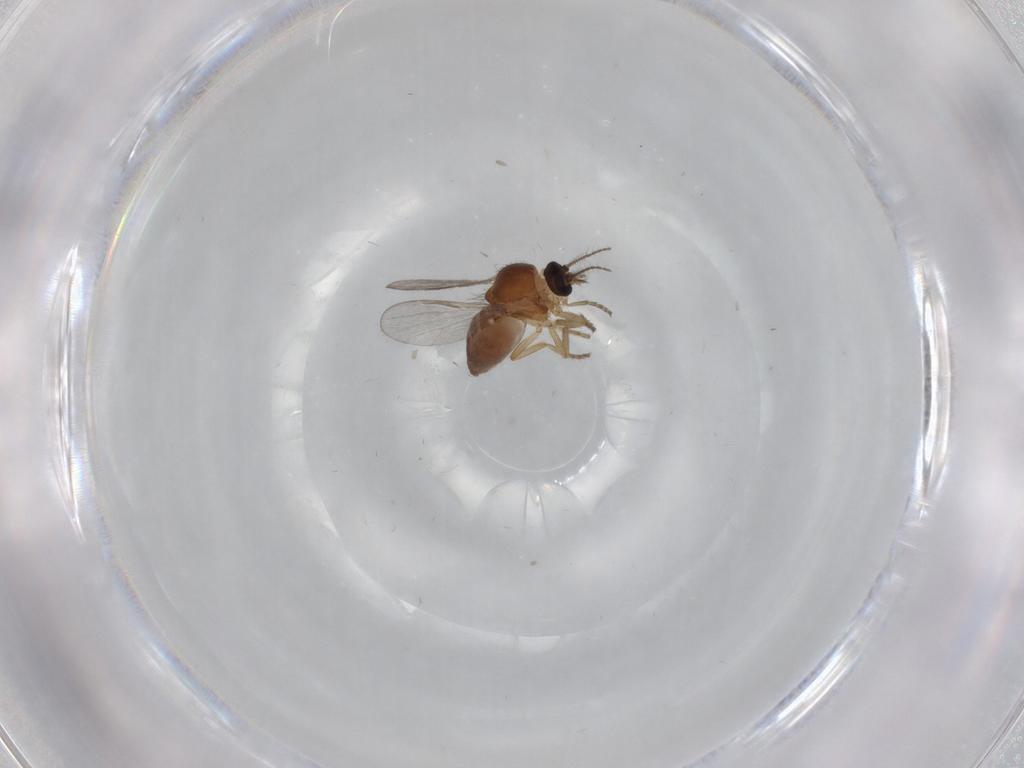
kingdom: Animalia
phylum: Arthropoda
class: Insecta
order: Diptera
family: Ceratopogonidae
